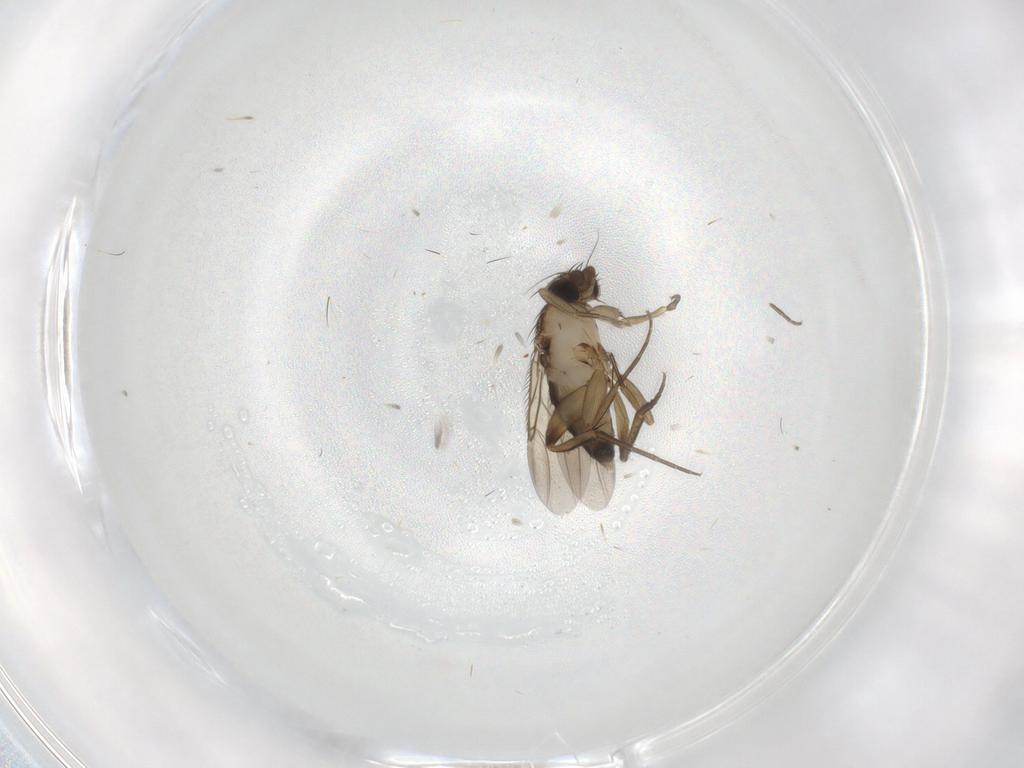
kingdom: Animalia
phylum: Arthropoda
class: Insecta
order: Diptera
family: Phoridae
